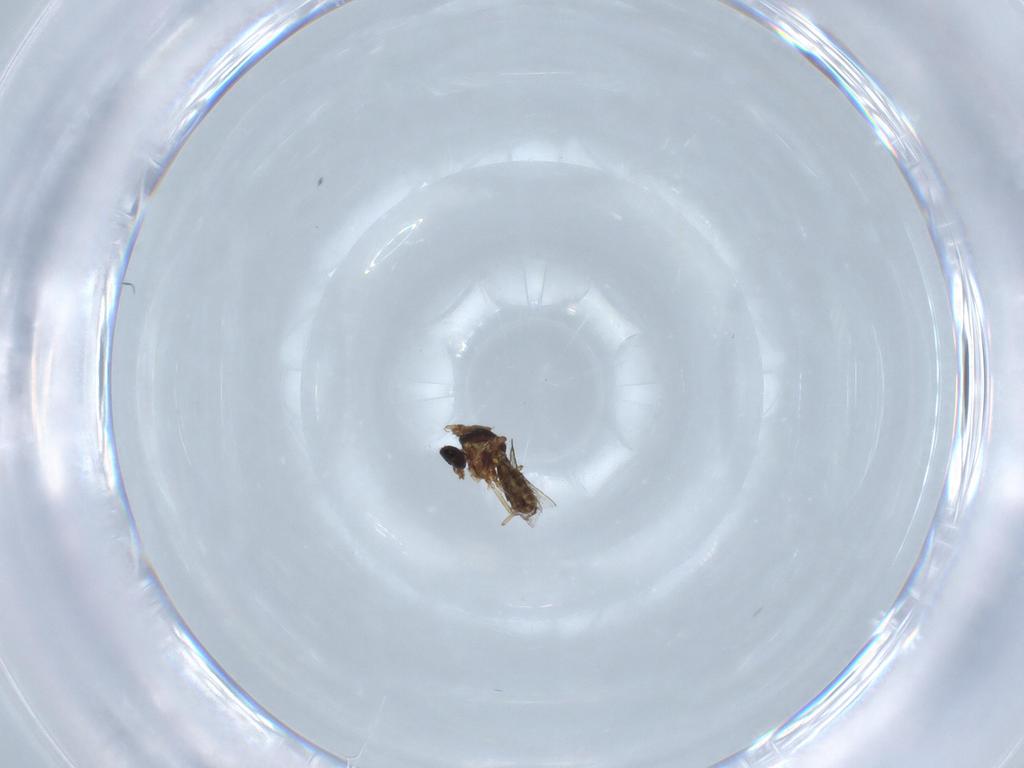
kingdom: Animalia
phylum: Arthropoda
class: Insecta
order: Diptera
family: Psychodidae
